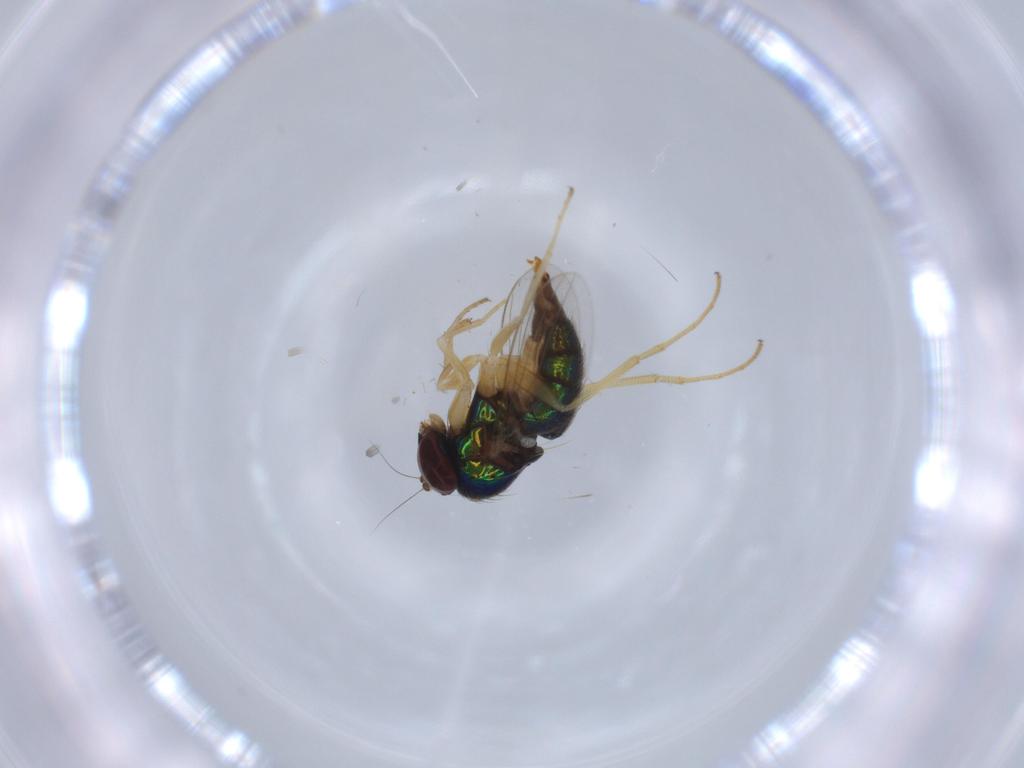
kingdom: Animalia
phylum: Arthropoda
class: Insecta
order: Diptera
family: Dolichopodidae
